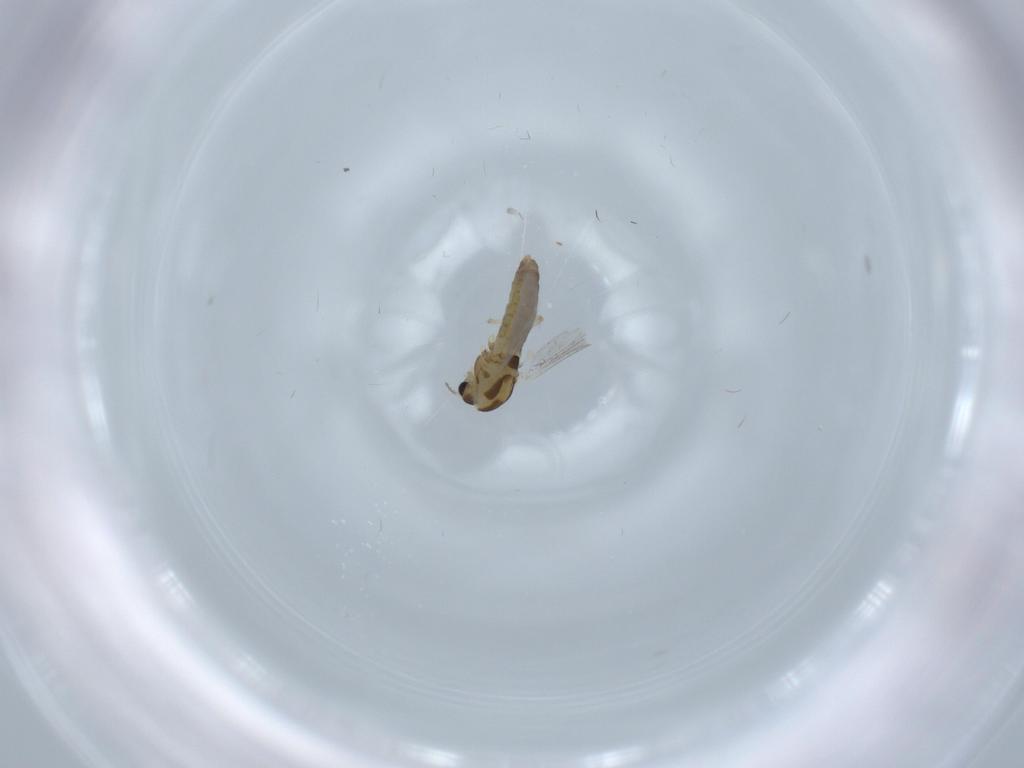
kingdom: Animalia
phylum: Arthropoda
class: Insecta
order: Diptera
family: Chironomidae
